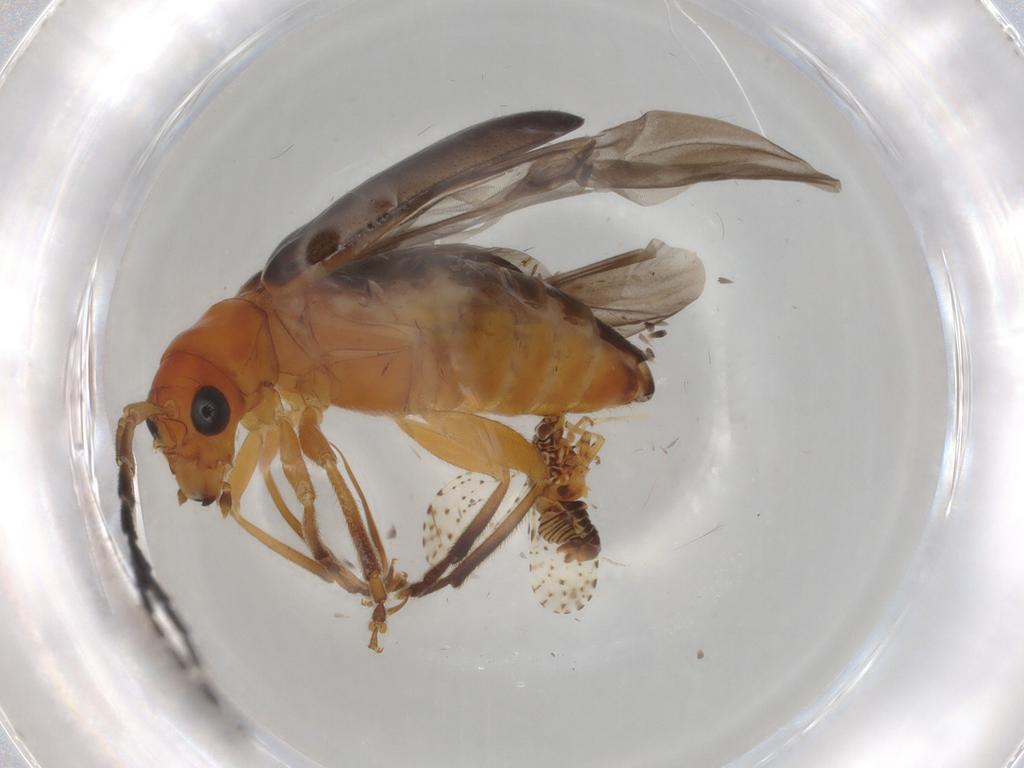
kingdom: Animalia
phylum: Arthropoda
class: Insecta
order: Coleoptera
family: Chrysomelidae
